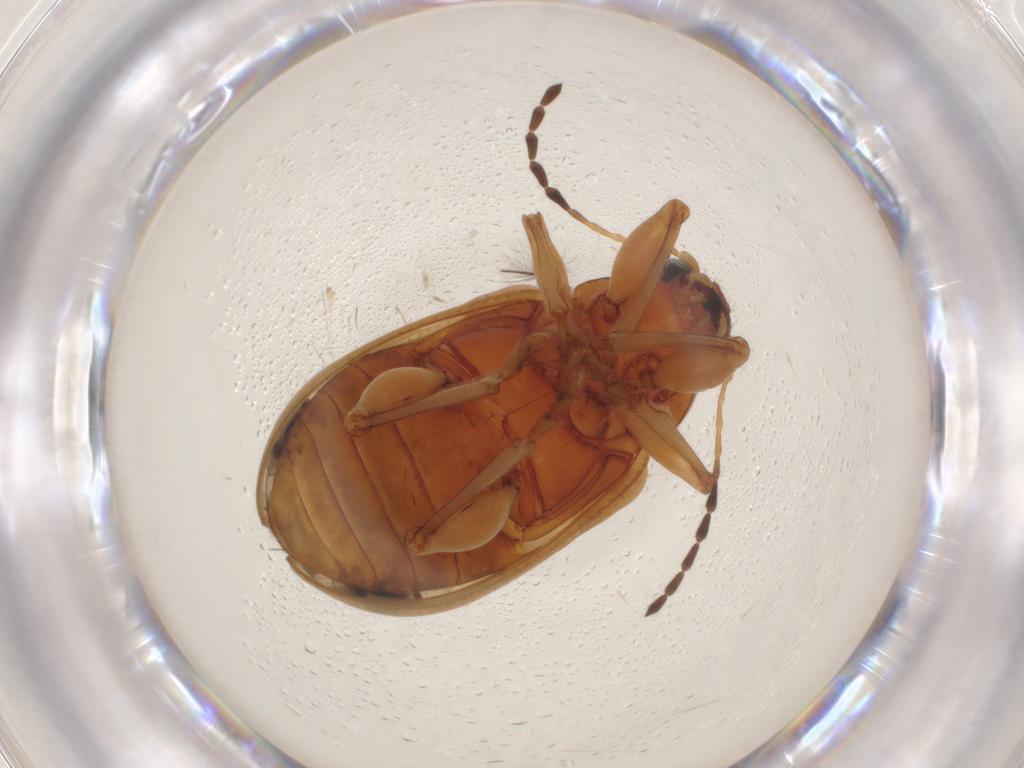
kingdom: Animalia
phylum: Arthropoda
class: Insecta
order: Coleoptera
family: Chrysomelidae
